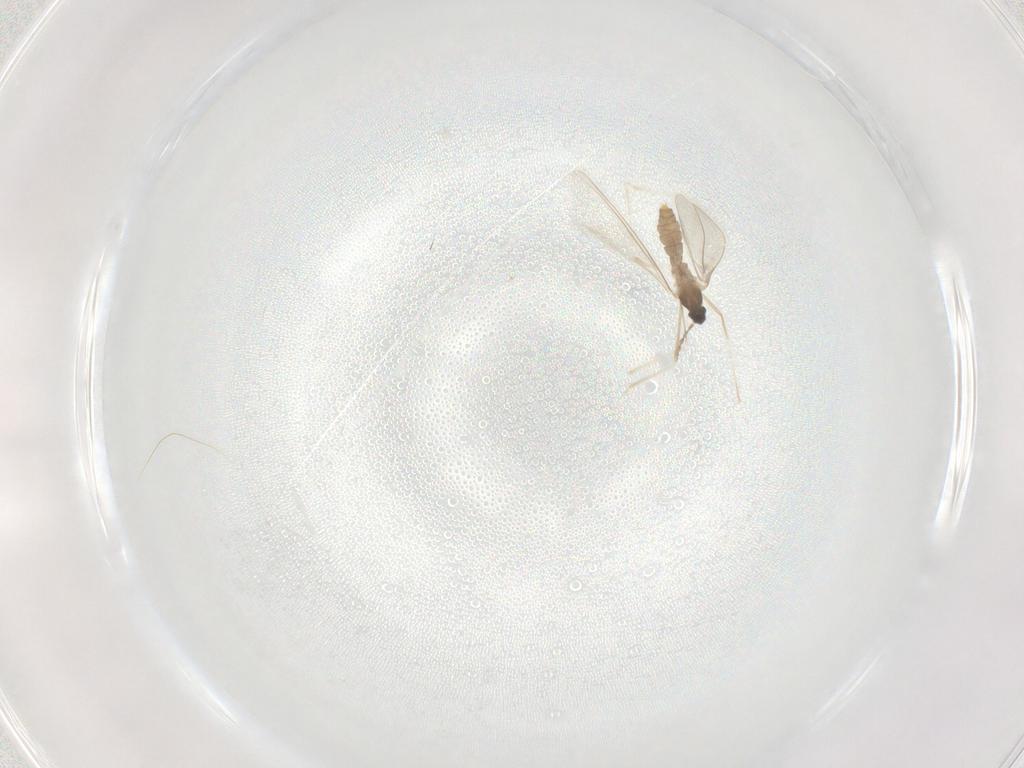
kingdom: Animalia
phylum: Arthropoda
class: Insecta
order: Diptera
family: Cecidomyiidae
